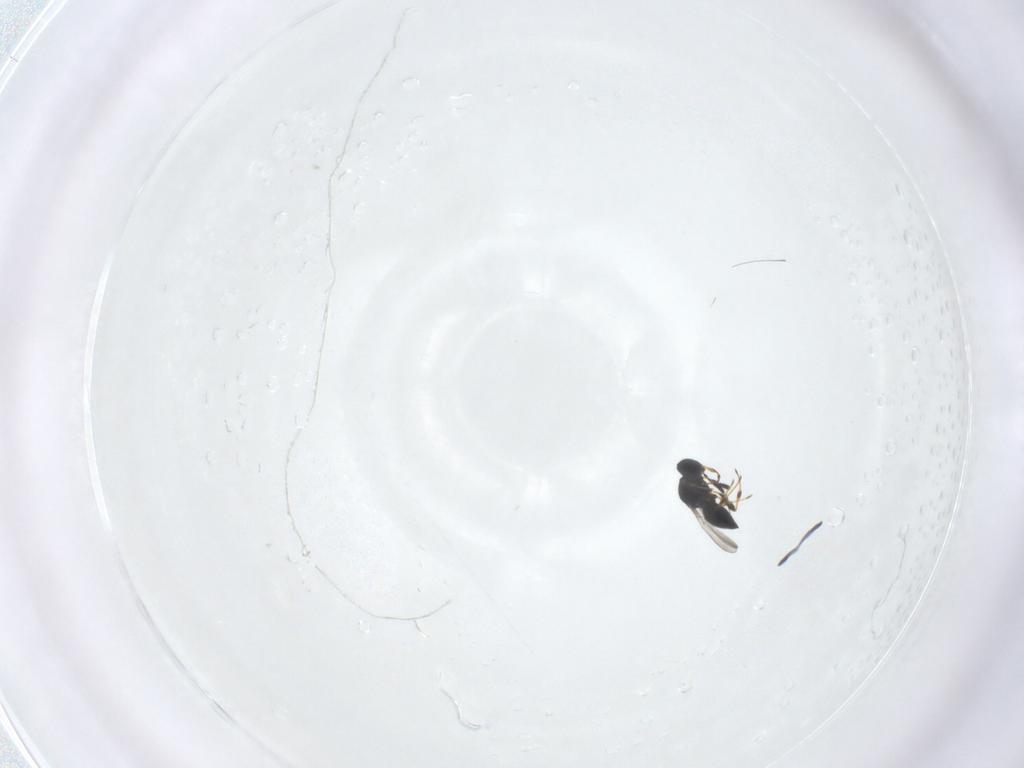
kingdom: Animalia
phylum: Arthropoda
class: Insecta
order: Hymenoptera
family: Platygastridae
